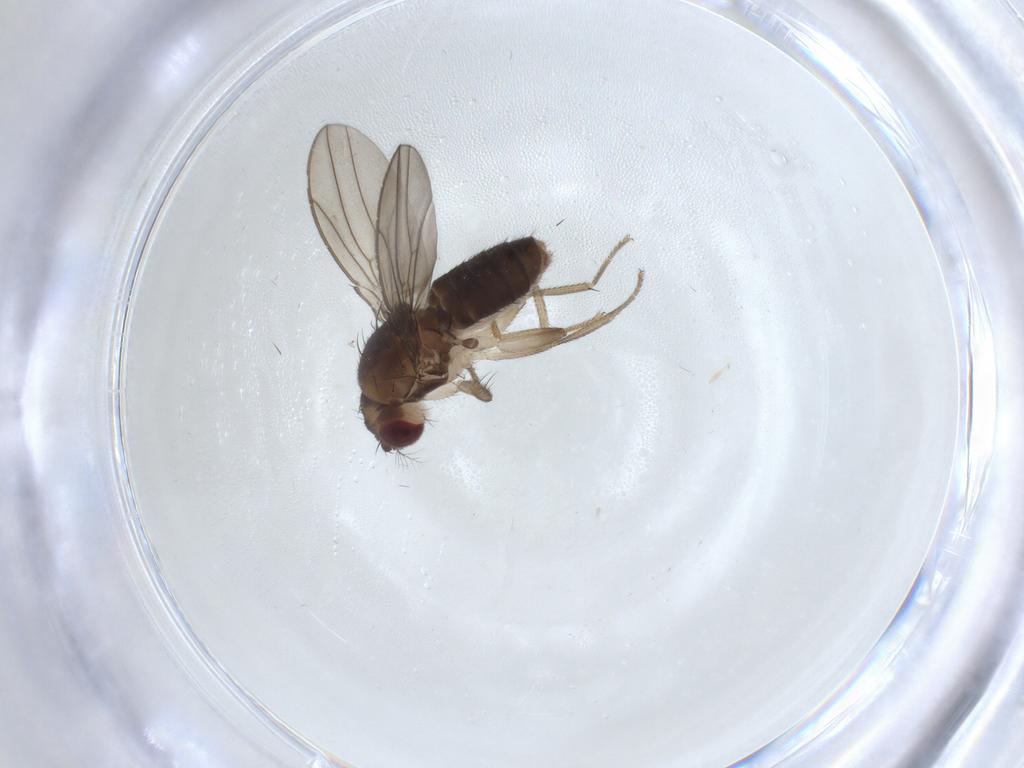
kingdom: Animalia
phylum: Arthropoda
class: Insecta
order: Diptera
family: Drosophilidae
